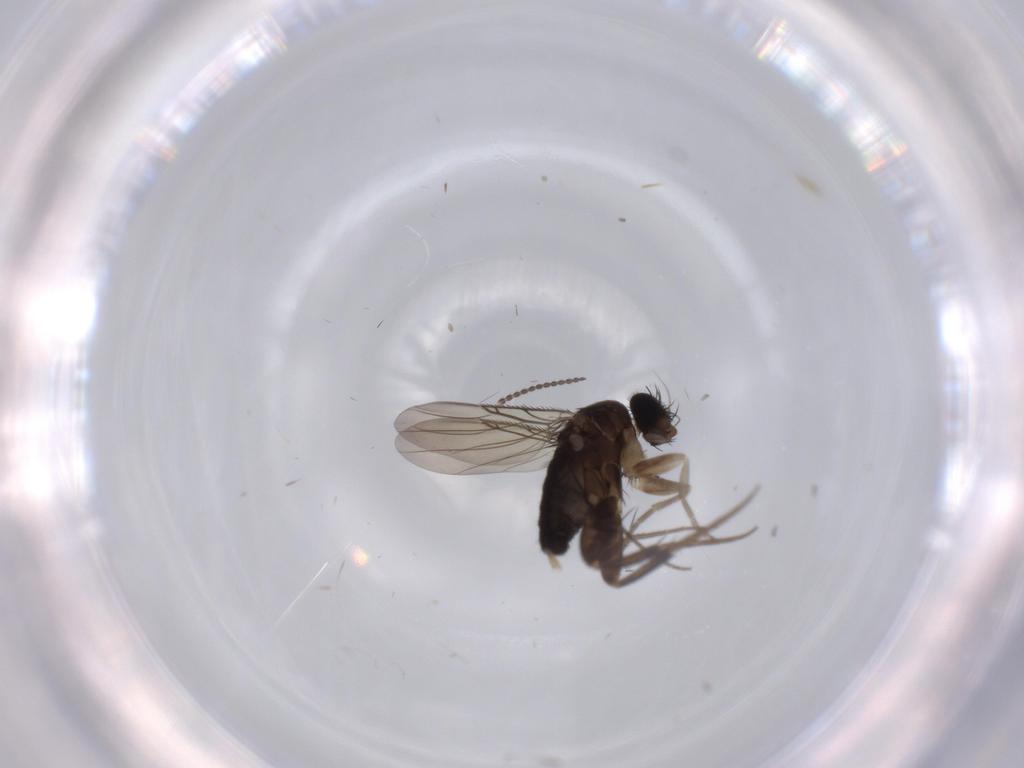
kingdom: Animalia
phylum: Arthropoda
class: Insecta
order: Diptera
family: Phoridae
